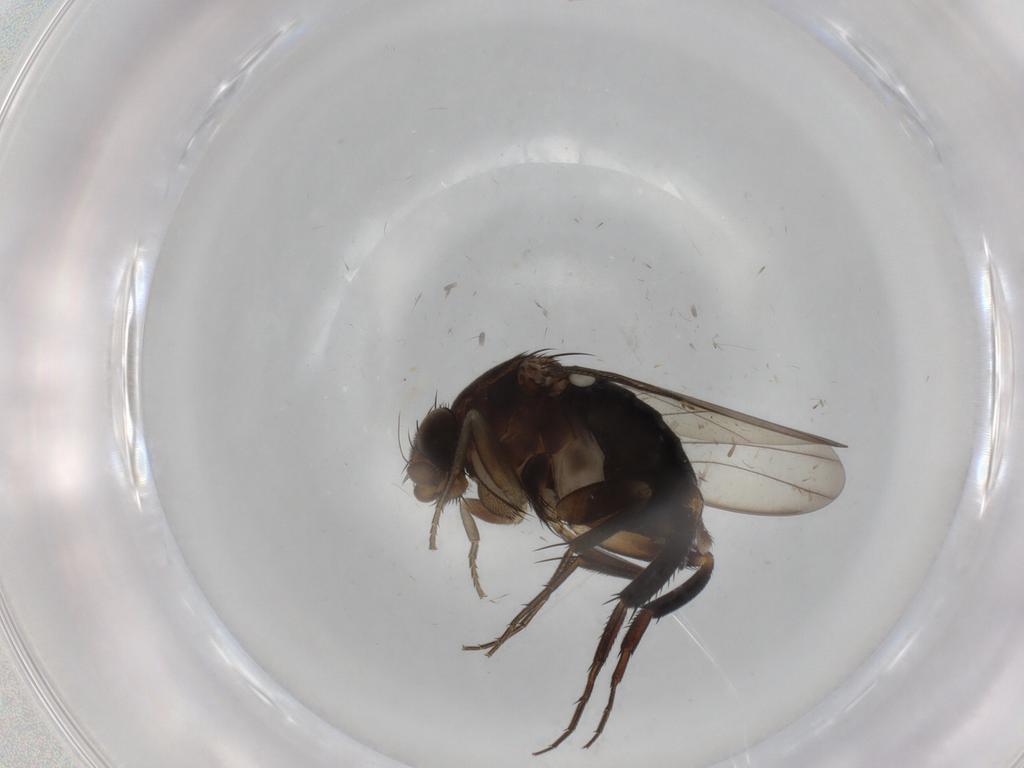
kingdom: Animalia
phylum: Arthropoda
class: Insecta
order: Diptera
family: Phoridae
